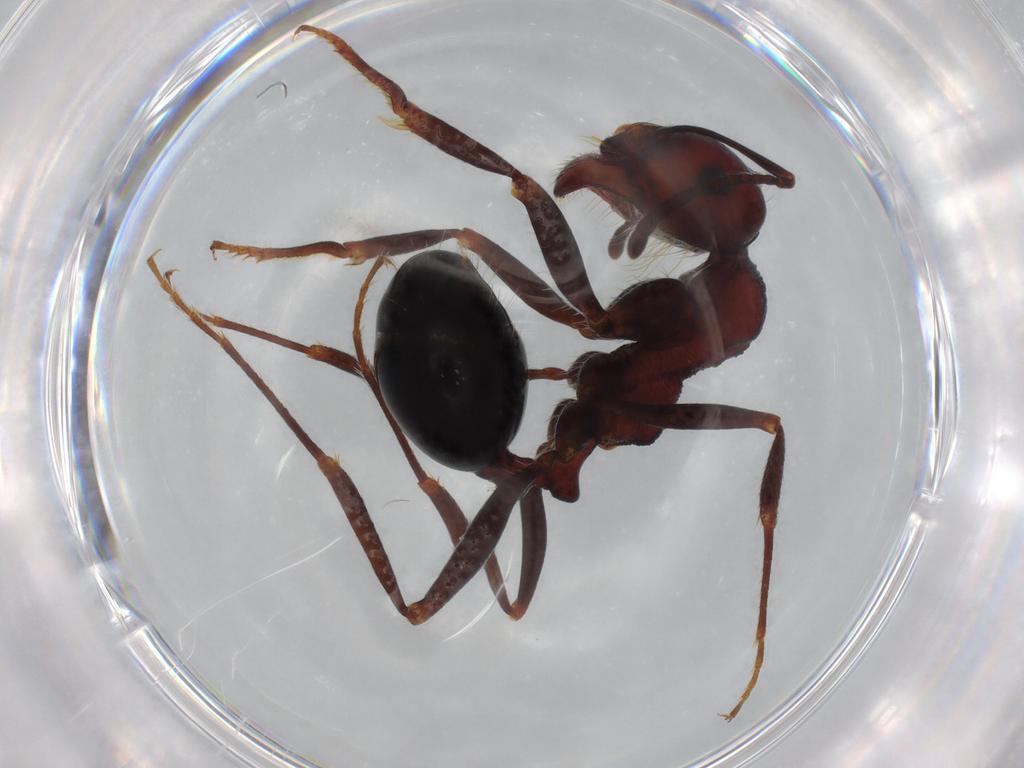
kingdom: Animalia
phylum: Arthropoda
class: Insecta
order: Hymenoptera
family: Formicidae
